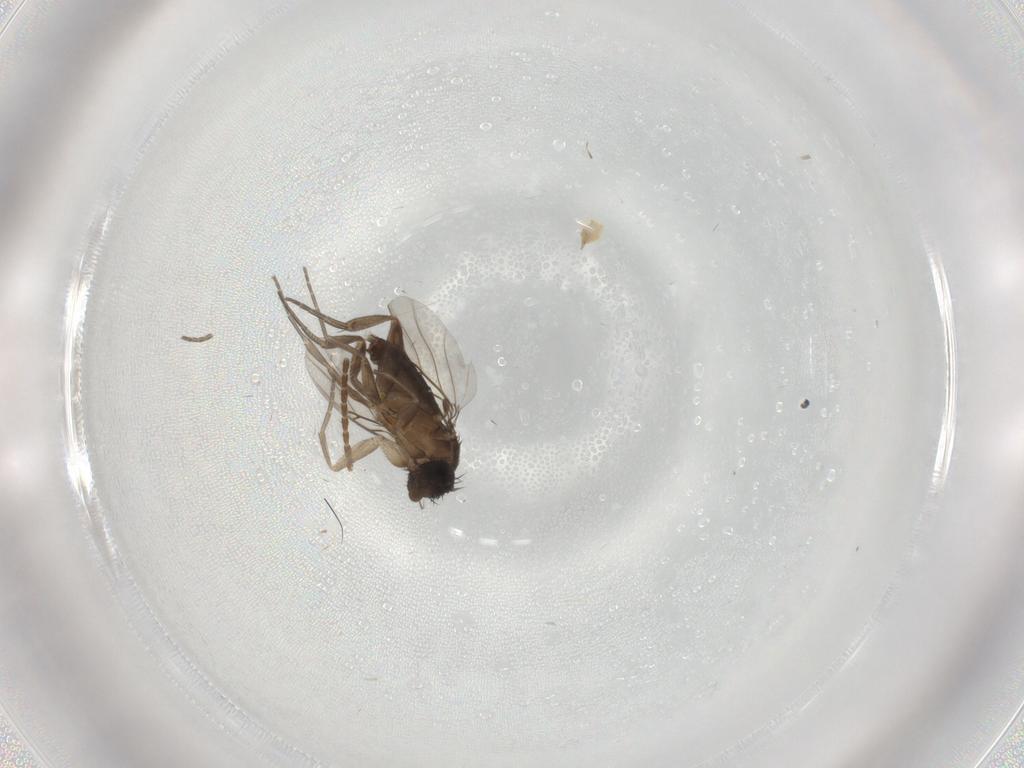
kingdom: Animalia
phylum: Arthropoda
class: Insecta
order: Diptera
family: Phoridae
